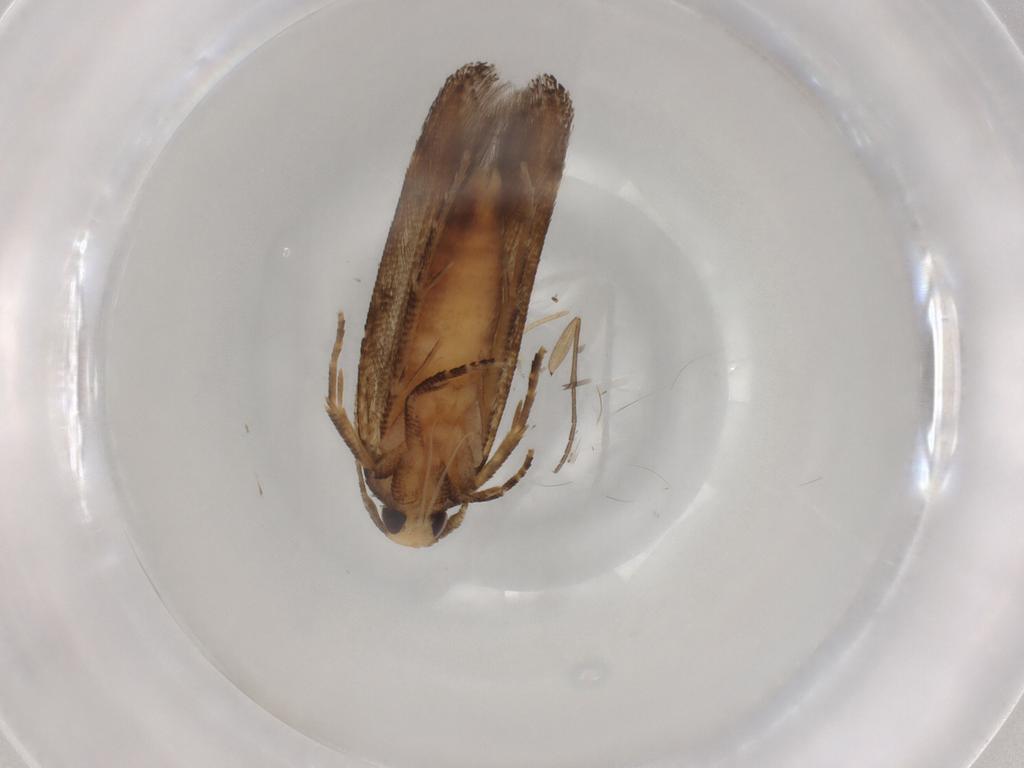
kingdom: Animalia
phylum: Arthropoda
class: Insecta
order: Lepidoptera
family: Cosmopterigidae
